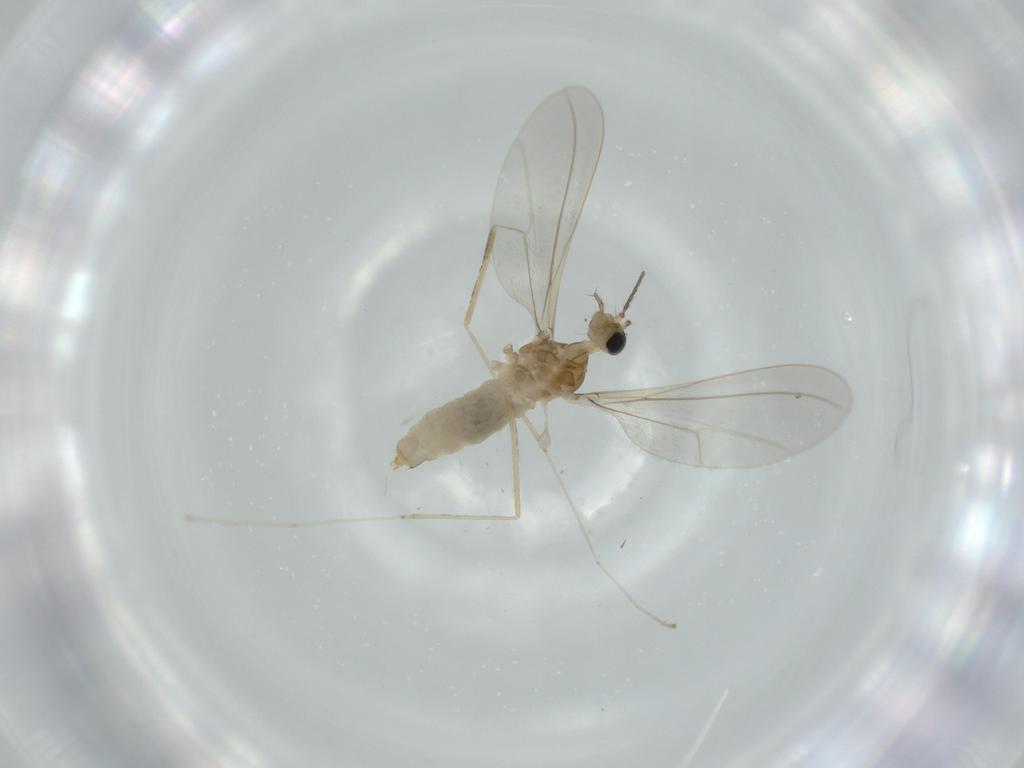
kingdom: Animalia
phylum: Arthropoda
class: Insecta
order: Diptera
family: Cecidomyiidae
